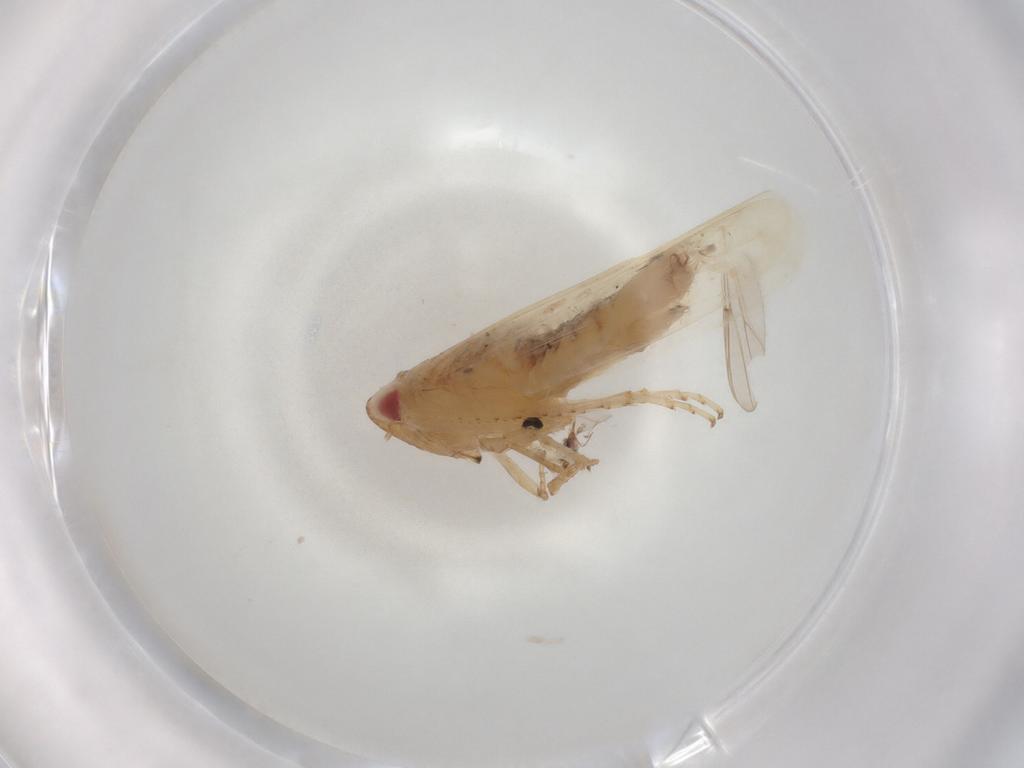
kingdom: Animalia
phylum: Arthropoda
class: Insecta
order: Hemiptera
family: Cicadellidae
